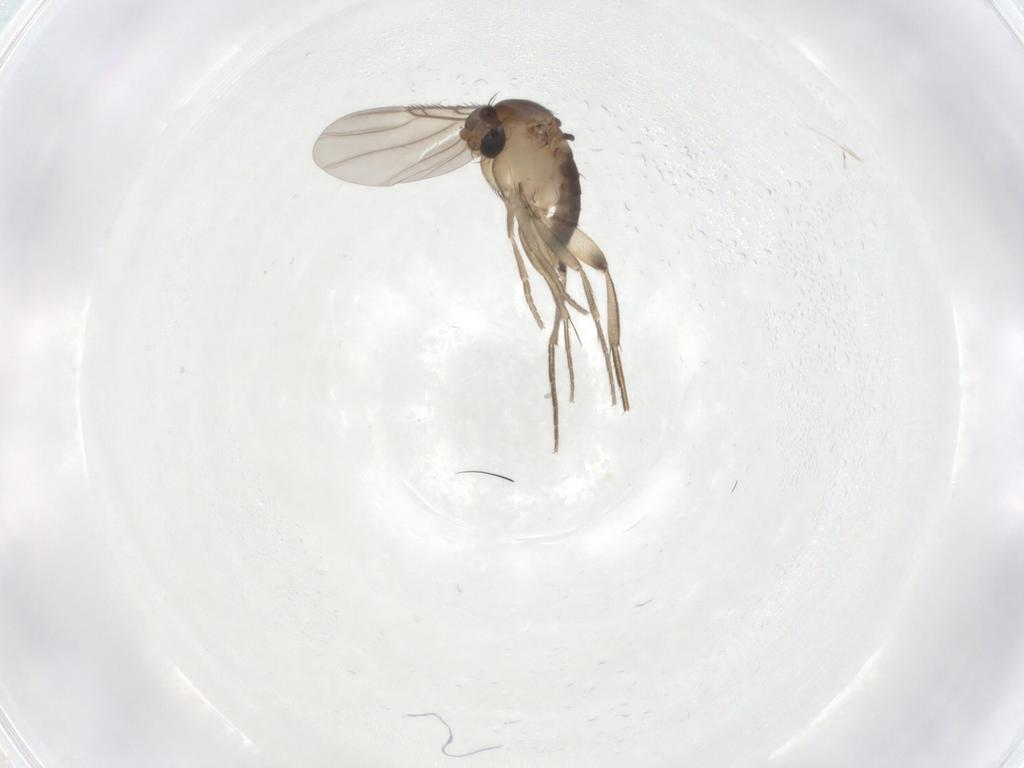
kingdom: Animalia
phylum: Arthropoda
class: Insecta
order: Diptera
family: Phoridae
